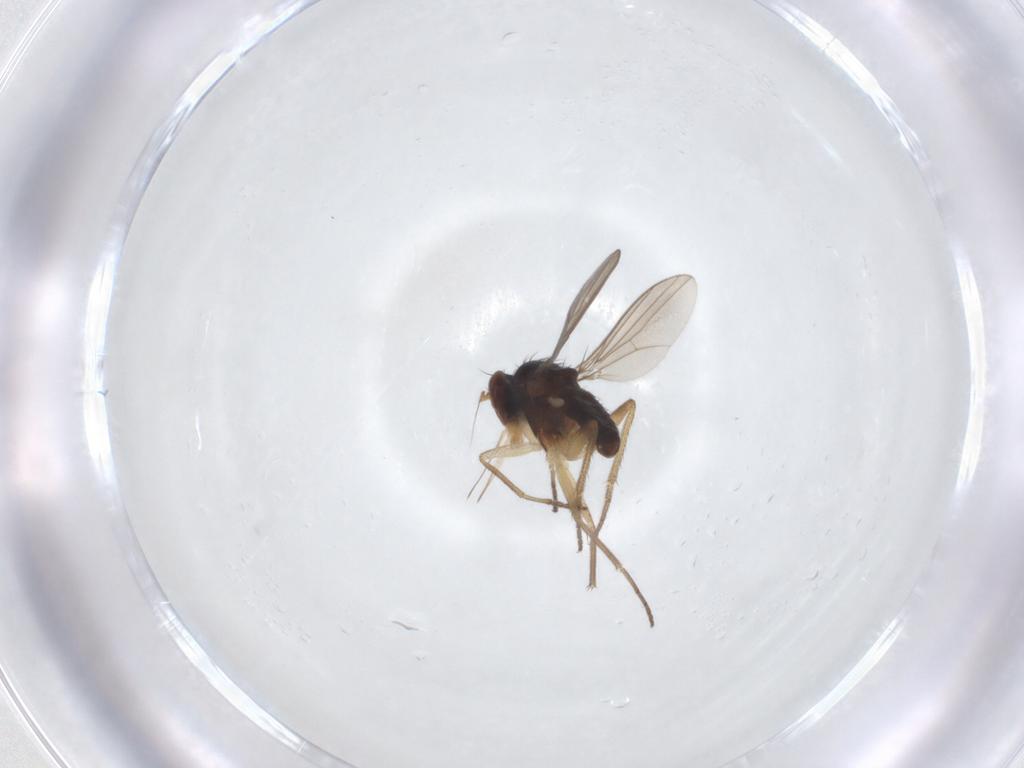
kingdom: Animalia
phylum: Arthropoda
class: Insecta
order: Diptera
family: Dolichopodidae
